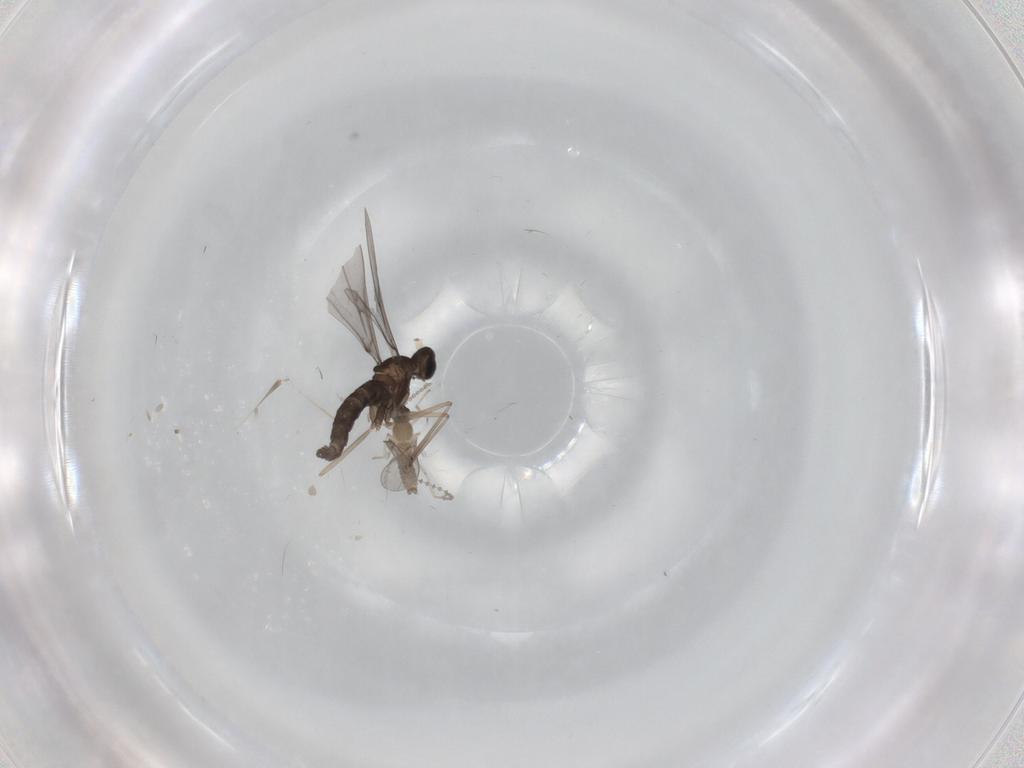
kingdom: Animalia
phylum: Arthropoda
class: Insecta
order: Diptera
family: Cecidomyiidae
